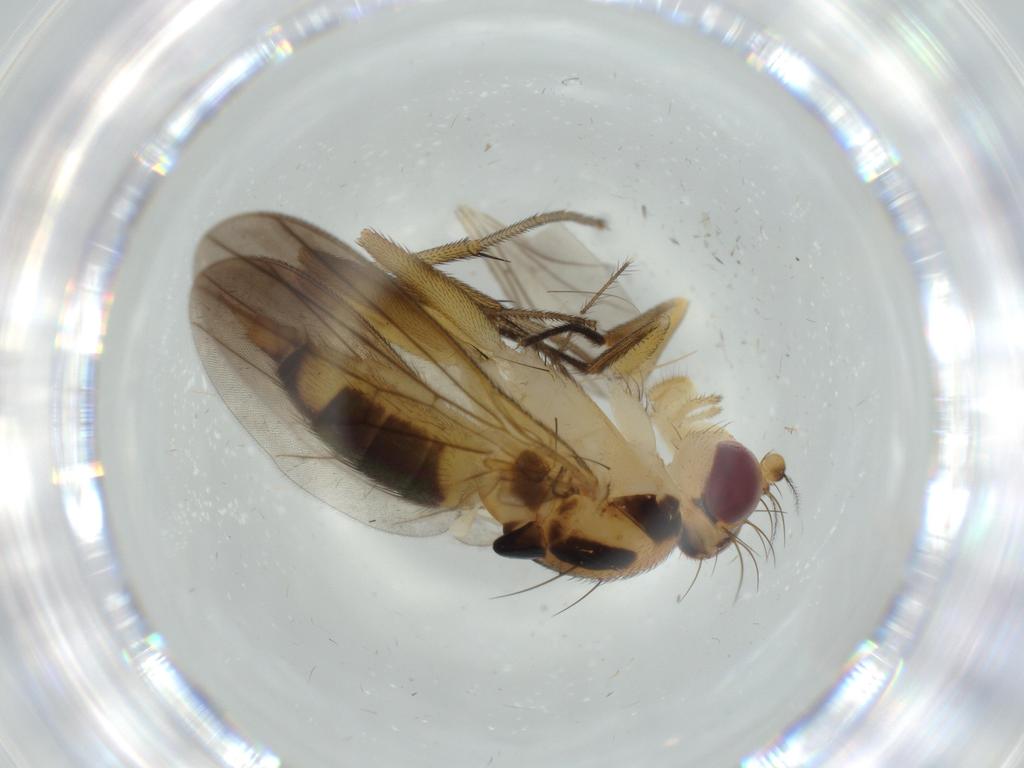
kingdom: Animalia
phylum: Arthropoda
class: Insecta
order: Diptera
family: Clusiidae
